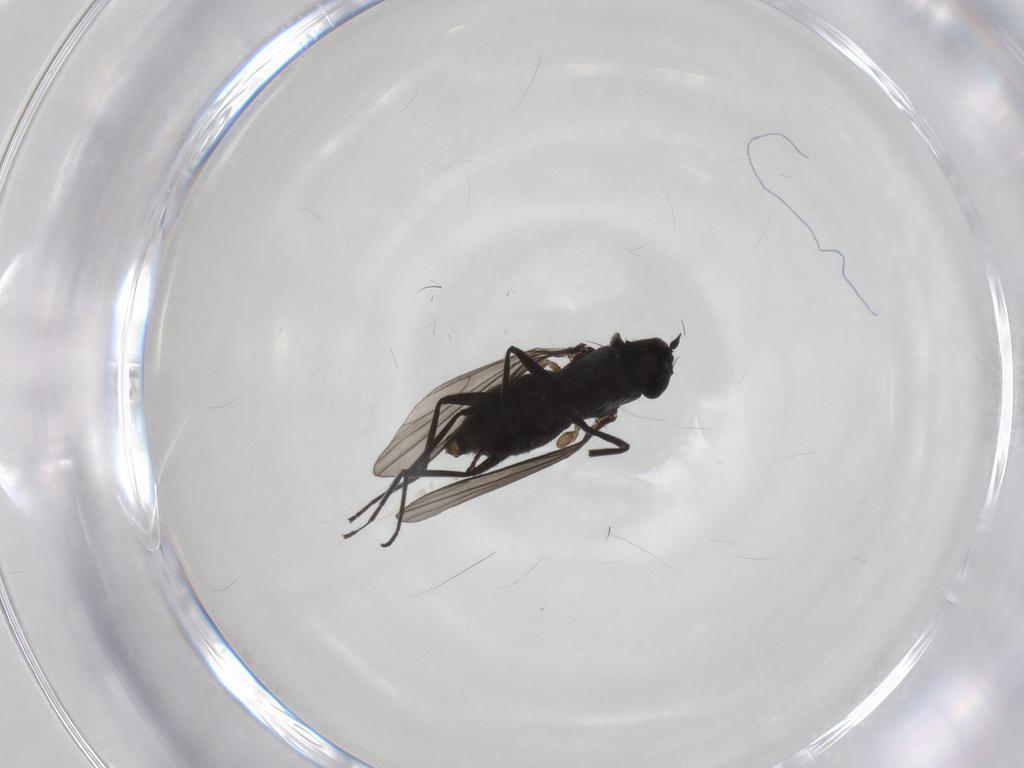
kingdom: Animalia
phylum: Arthropoda
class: Insecta
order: Diptera
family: Dolichopodidae
